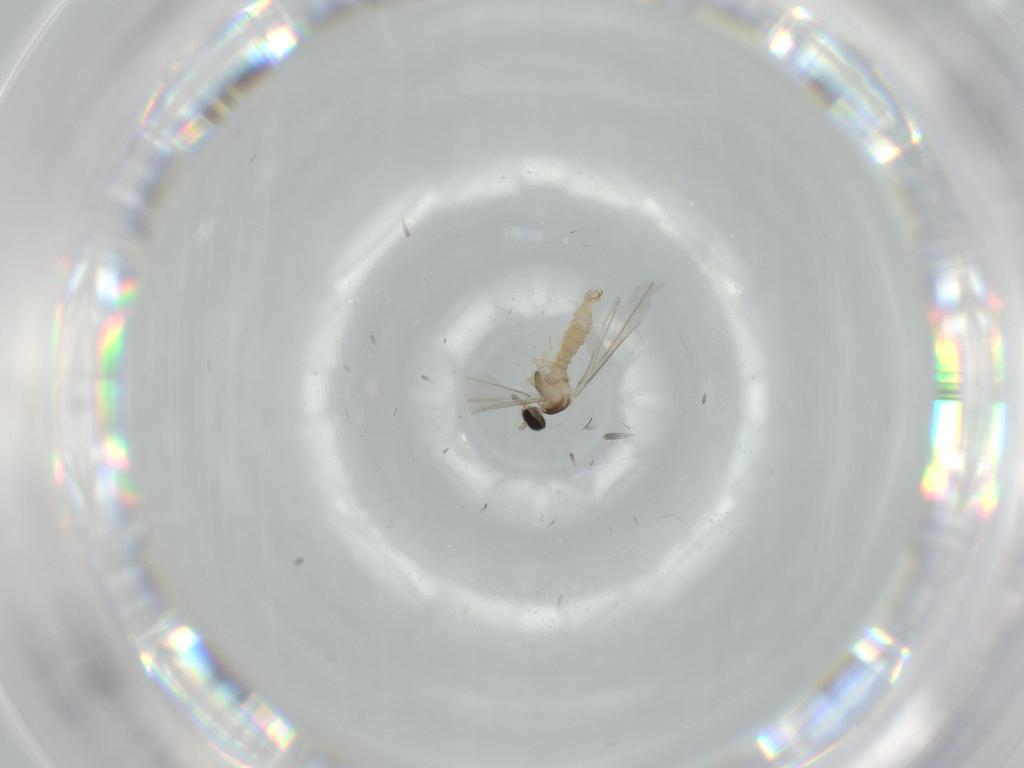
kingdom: Animalia
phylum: Arthropoda
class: Insecta
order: Diptera
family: Cecidomyiidae
